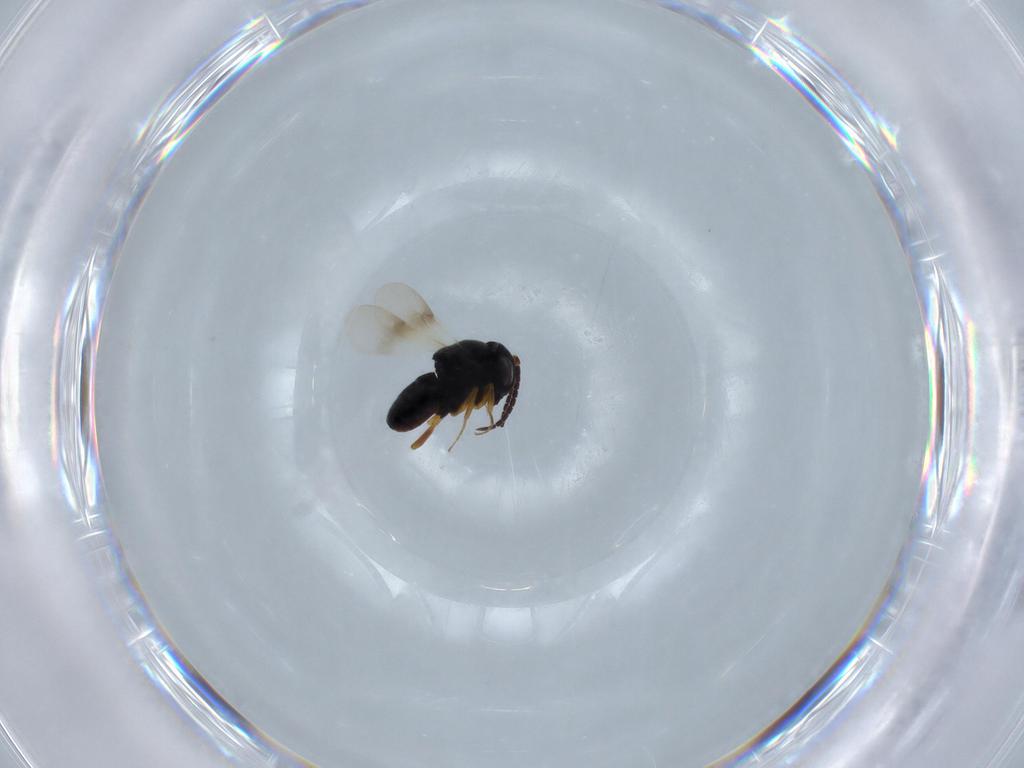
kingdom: Animalia
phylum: Arthropoda
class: Insecta
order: Hymenoptera
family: Scelionidae
